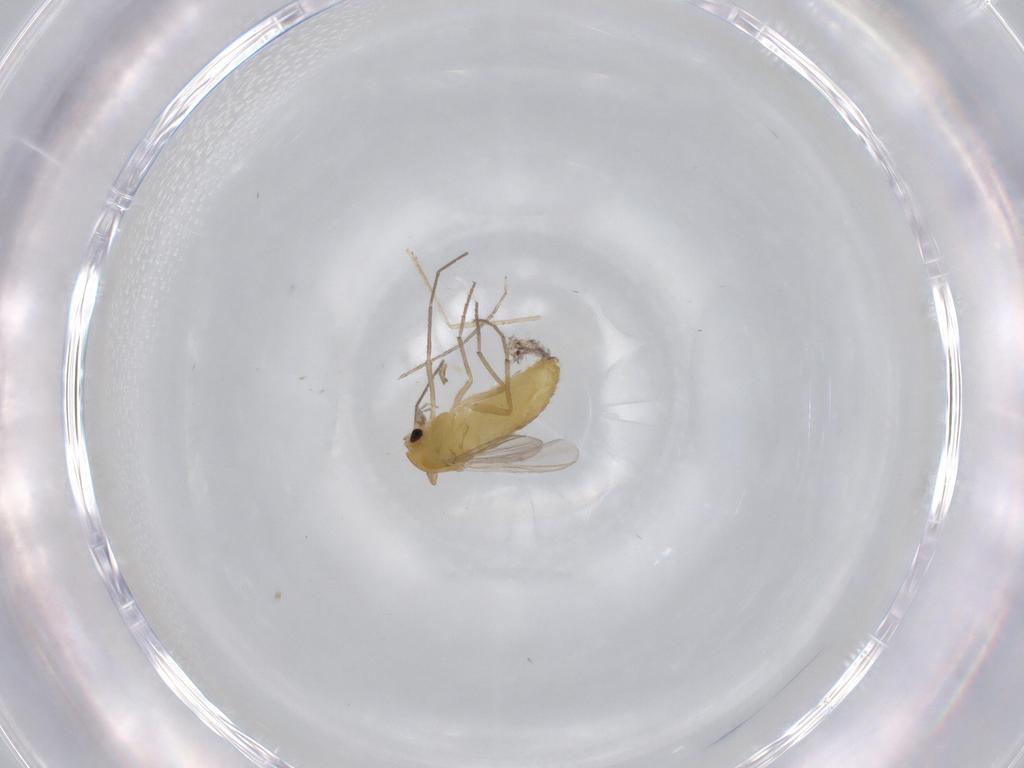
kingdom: Animalia
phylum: Arthropoda
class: Insecta
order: Diptera
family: Chironomidae
